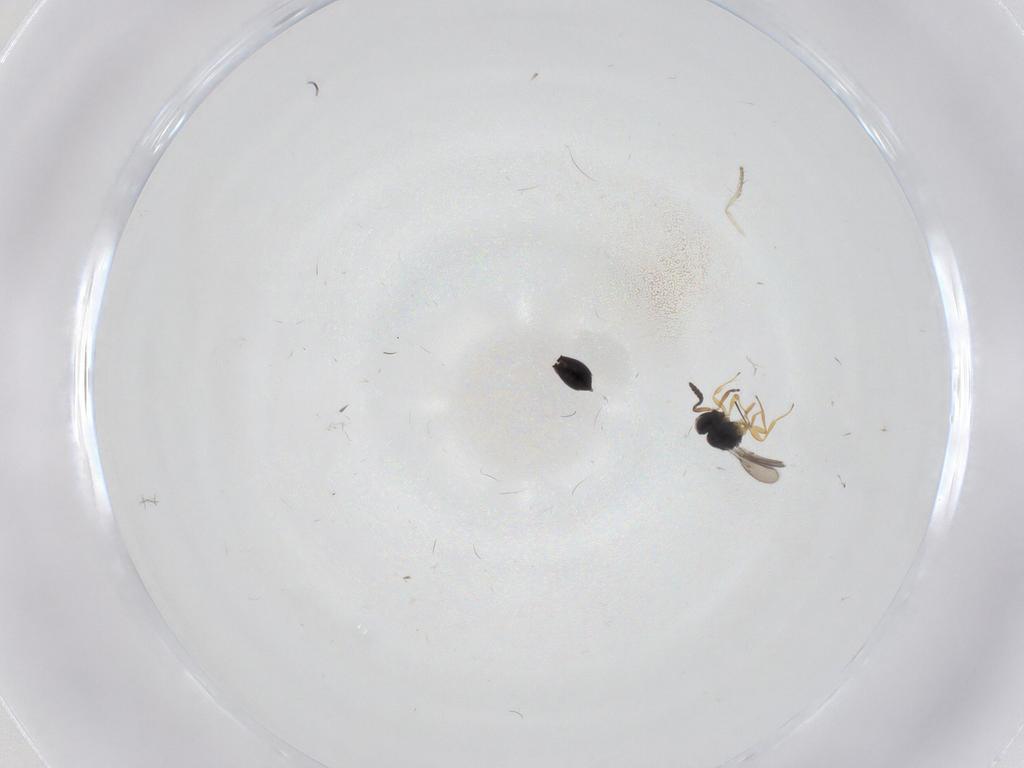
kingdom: Animalia
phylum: Arthropoda
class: Insecta
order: Hymenoptera
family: Scelionidae
